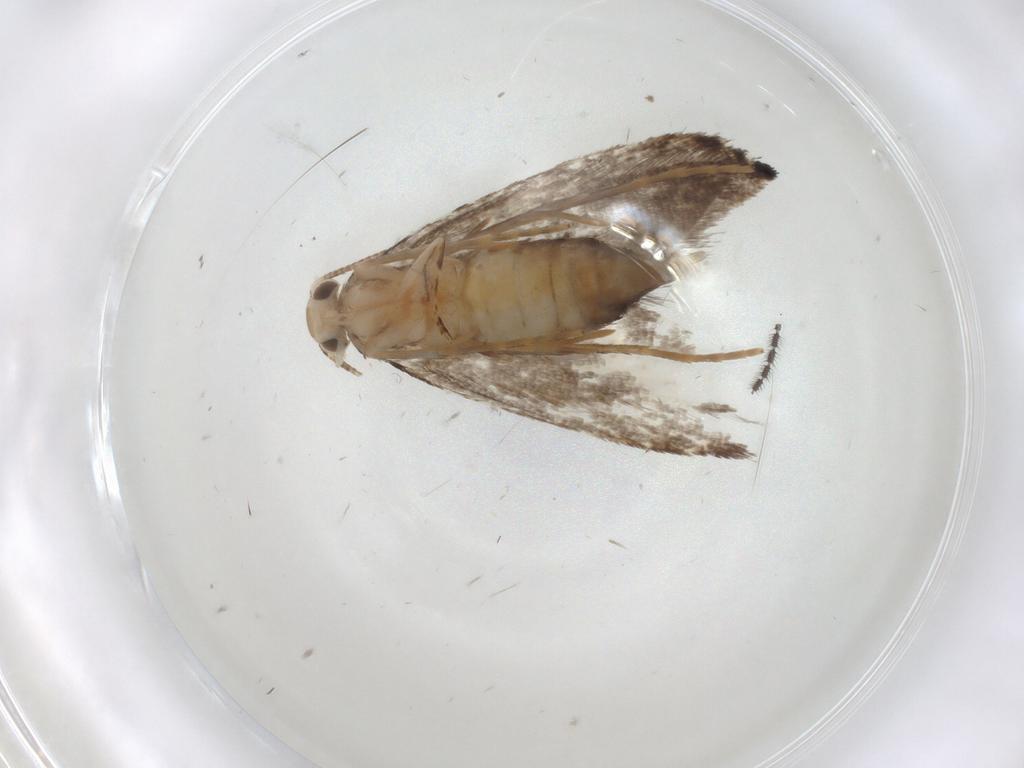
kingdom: Animalia
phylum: Arthropoda
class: Insecta
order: Lepidoptera
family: Tineidae
